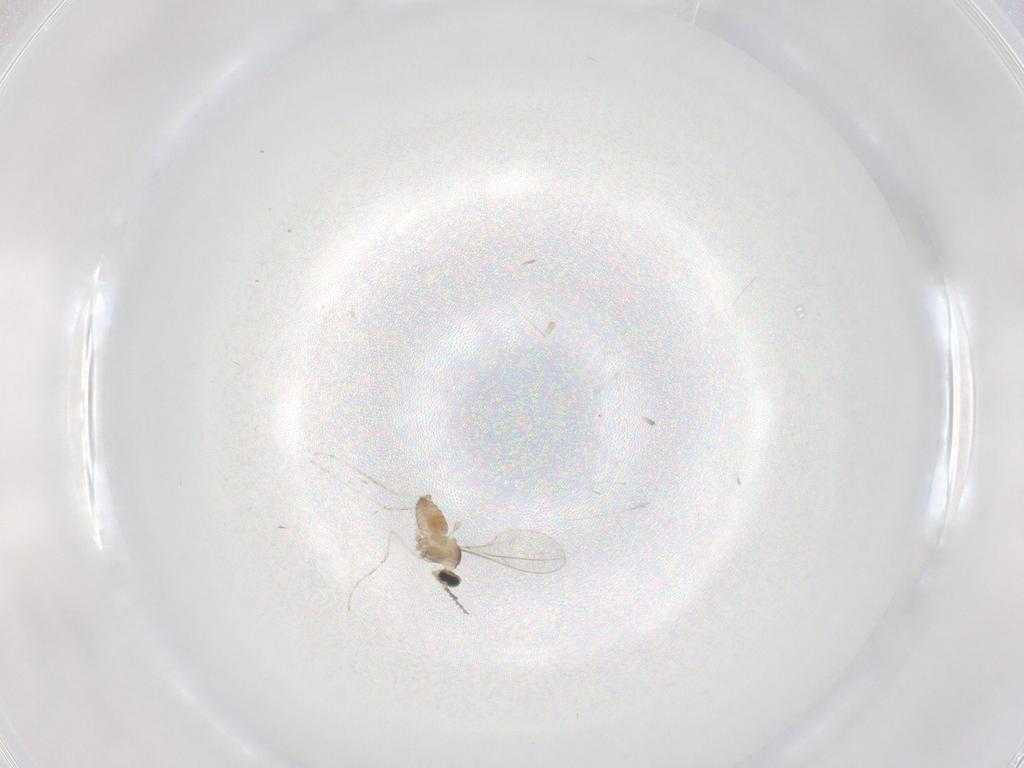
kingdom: Animalia
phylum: Arthropoda
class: Insecta
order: Diptera
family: Cecidomyiidae
